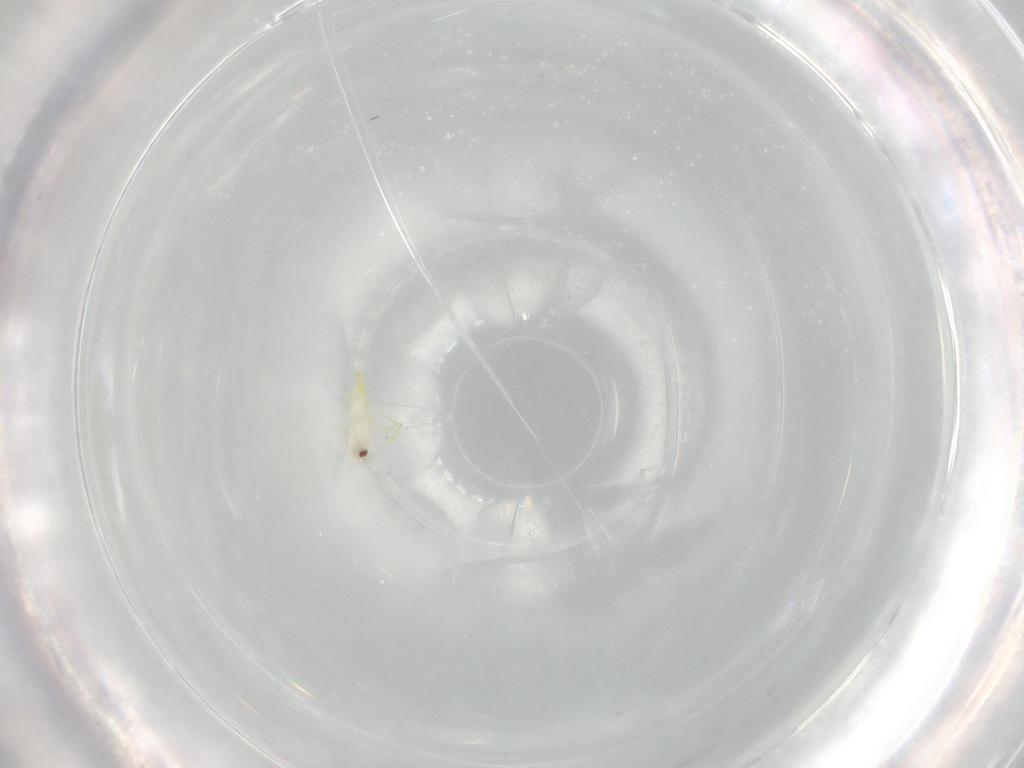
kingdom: Animalia
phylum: Arthropoda
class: Insecta
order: Hemiptera
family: Aleyrodidae
